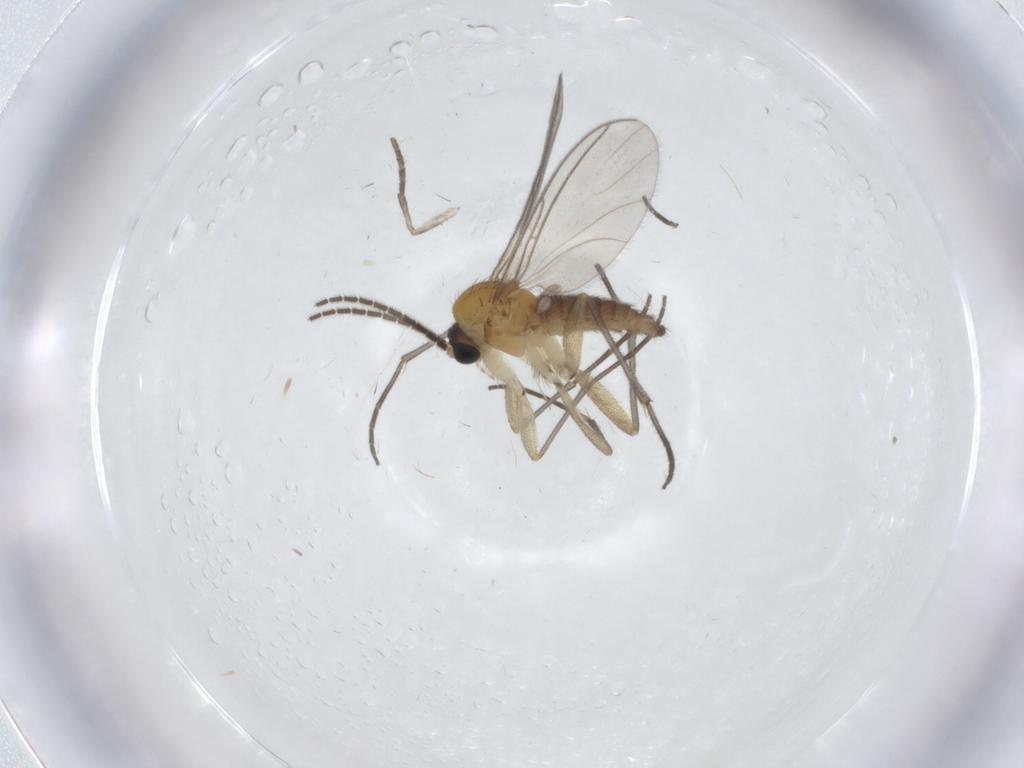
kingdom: Animalia
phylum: Arthropoda
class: Insecta
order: Diptera
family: Sciaridae
